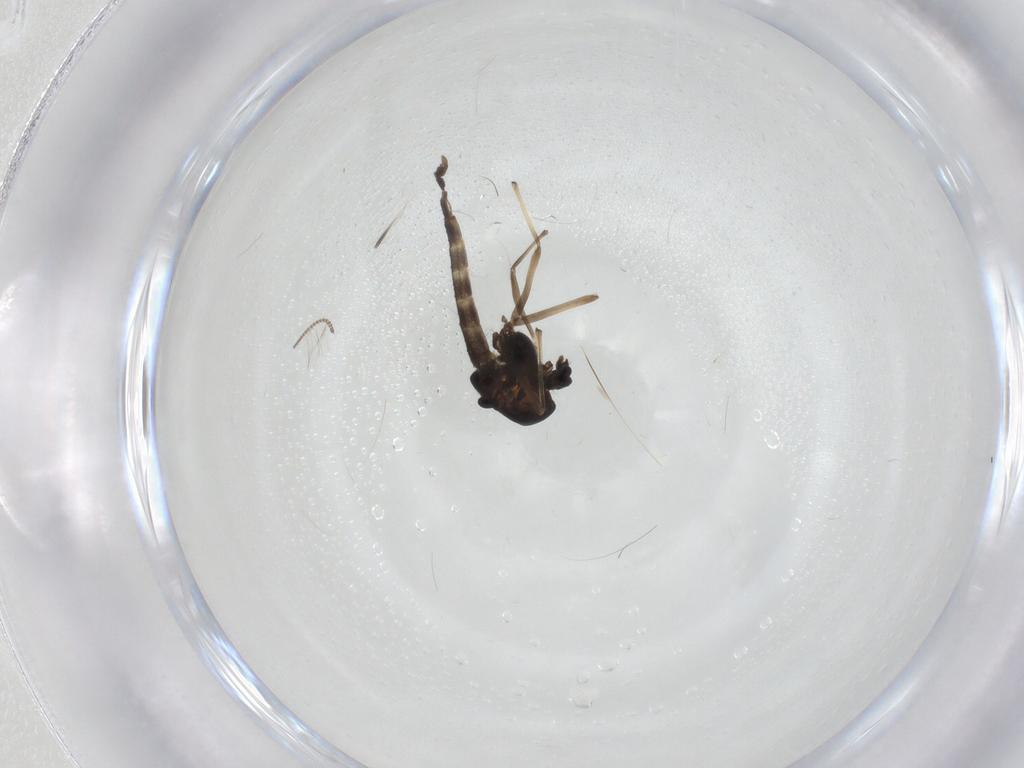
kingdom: Animalia
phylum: Arthropoda
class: Insecta
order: Diptera
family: Chironomidae
